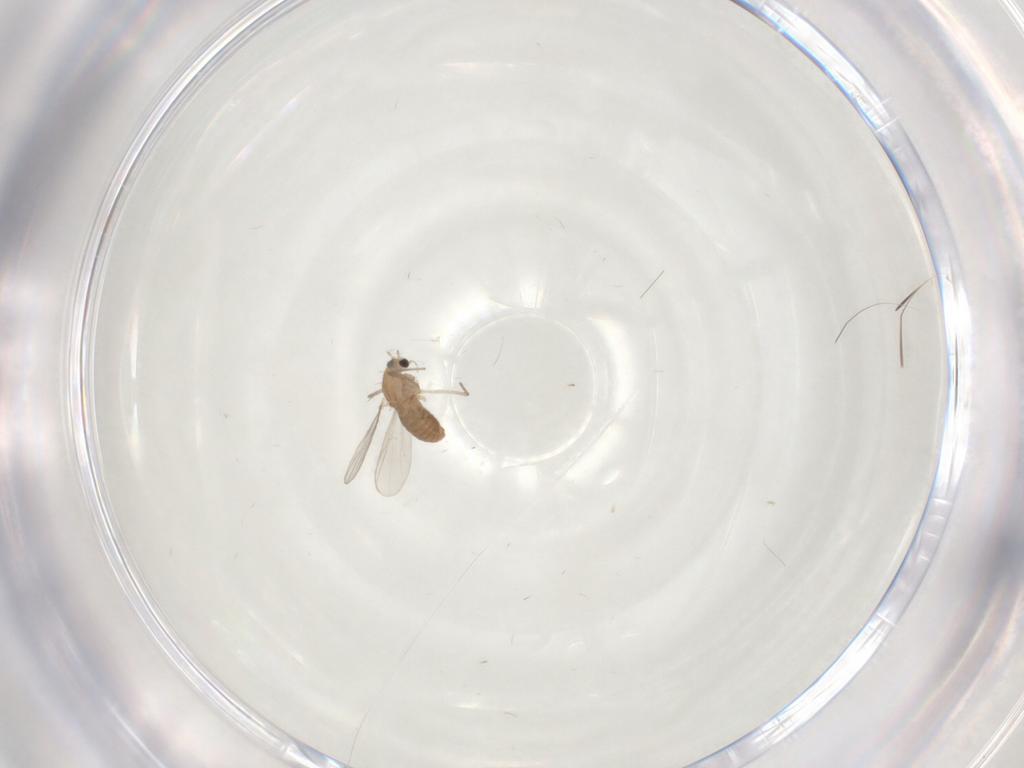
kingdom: Animalia
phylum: Arthropoda
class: Insecta
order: Diptera
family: Chironomidae
